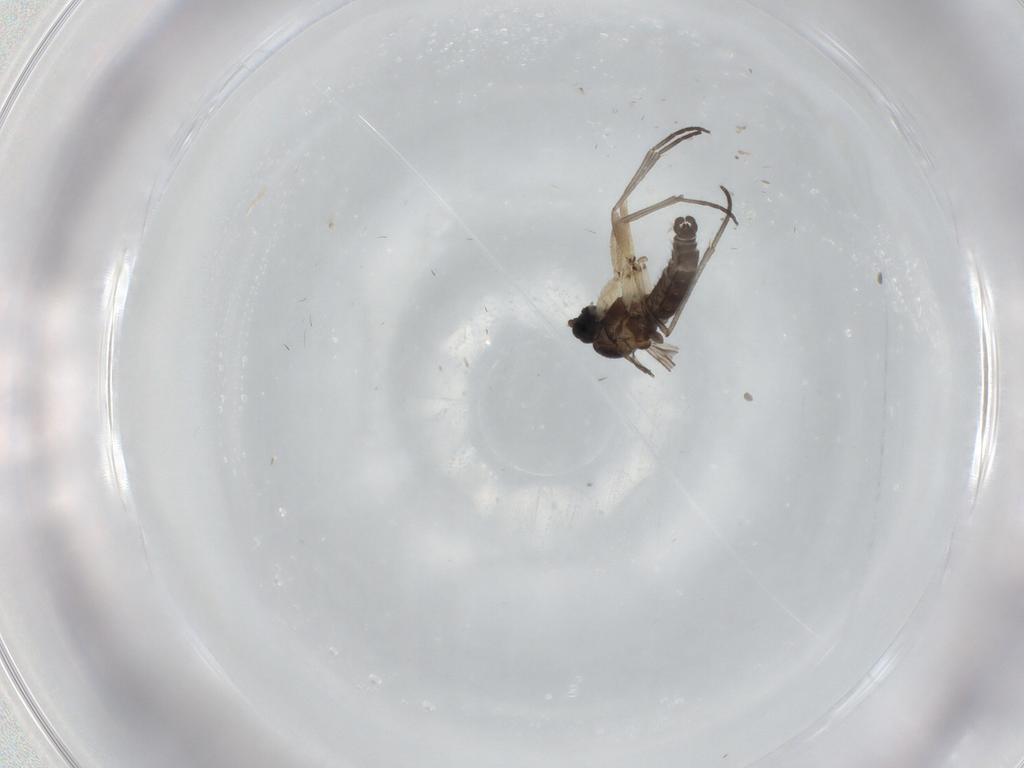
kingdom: Animalia
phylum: Arthropoda
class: Insecta
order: Diptera
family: Sciaridae
